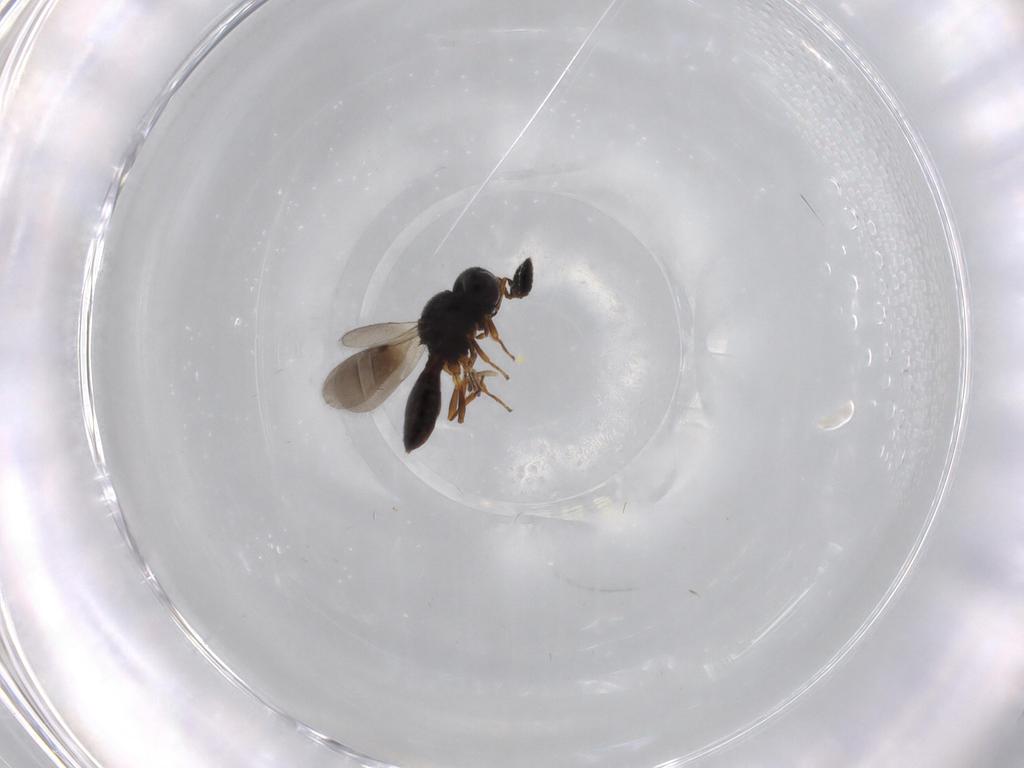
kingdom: Animalia
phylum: Arthropoda
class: Insecta
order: Hymenoptera
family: Scelionidae
